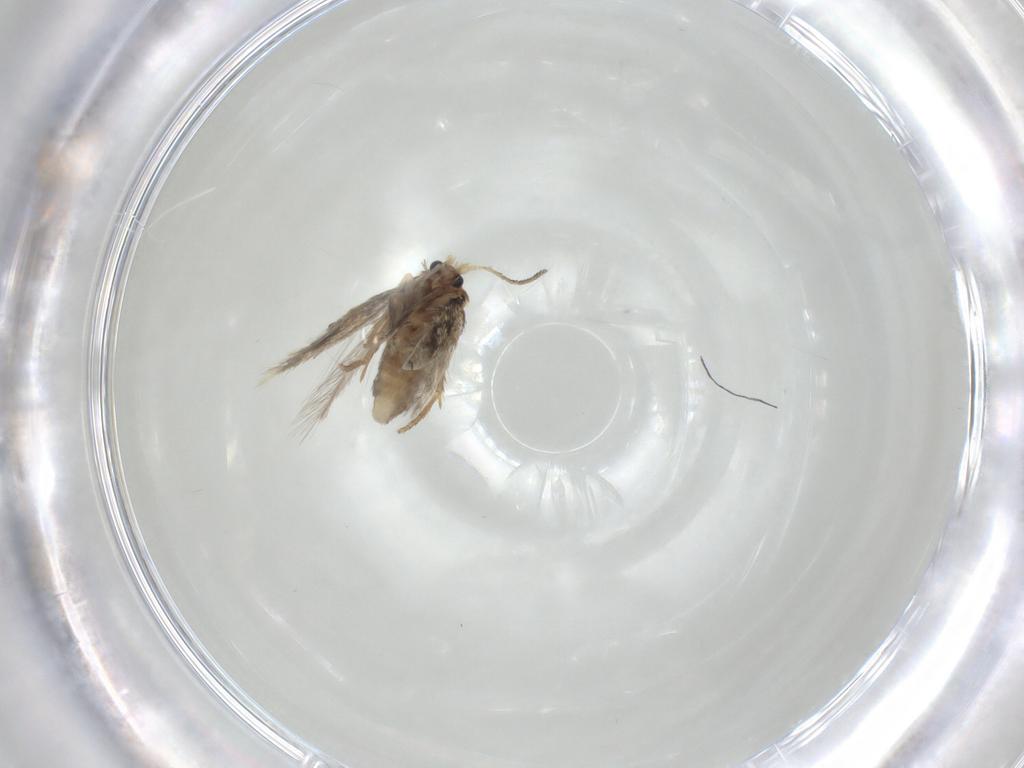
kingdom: Animalia
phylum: Arthropoda
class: Insecta
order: Lepidoptera
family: Nepticulidae
